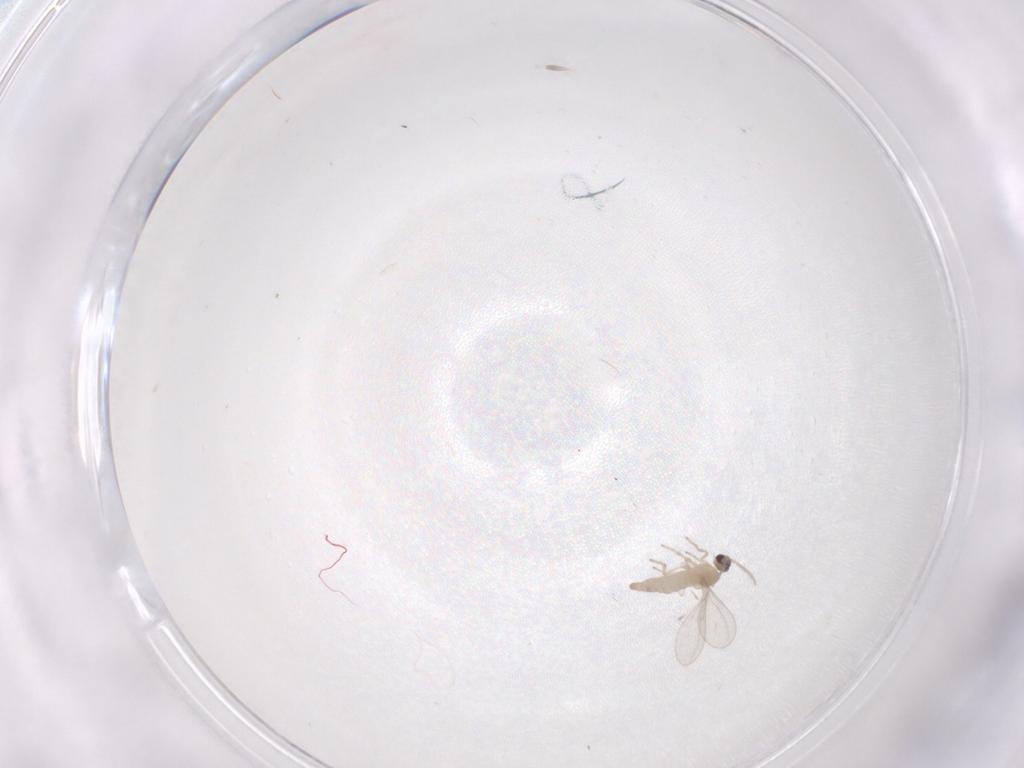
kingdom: Animalia
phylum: Arthropoda
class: Insecta
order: Diptera
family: Cecidomyiidae
